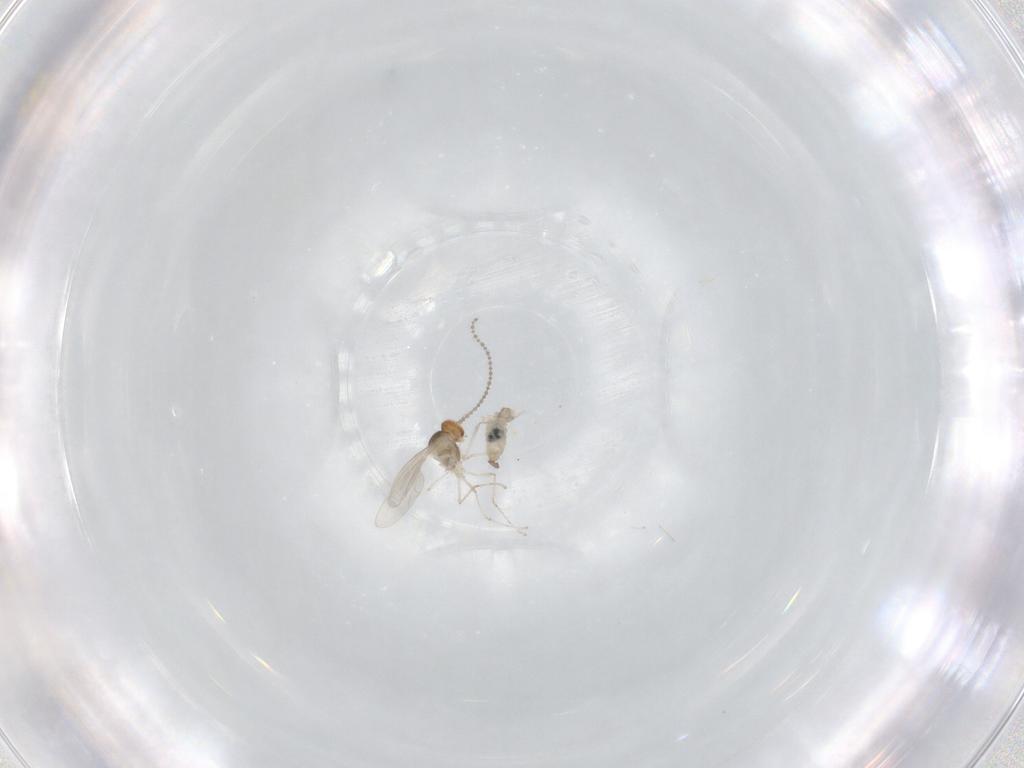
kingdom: Animalia
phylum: Arthropoda
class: Insecta
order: Diptera
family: Cecidomyiidae
